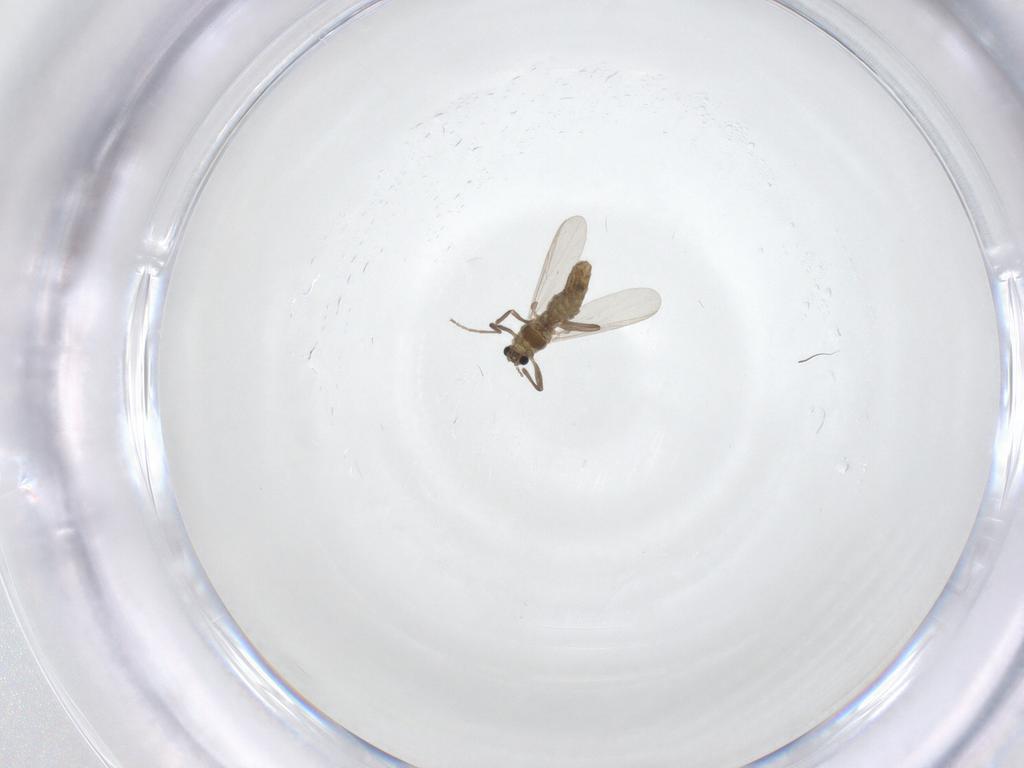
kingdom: Animalia
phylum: Arthropoda
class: Insecta
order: Diptera
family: Chironomidae
